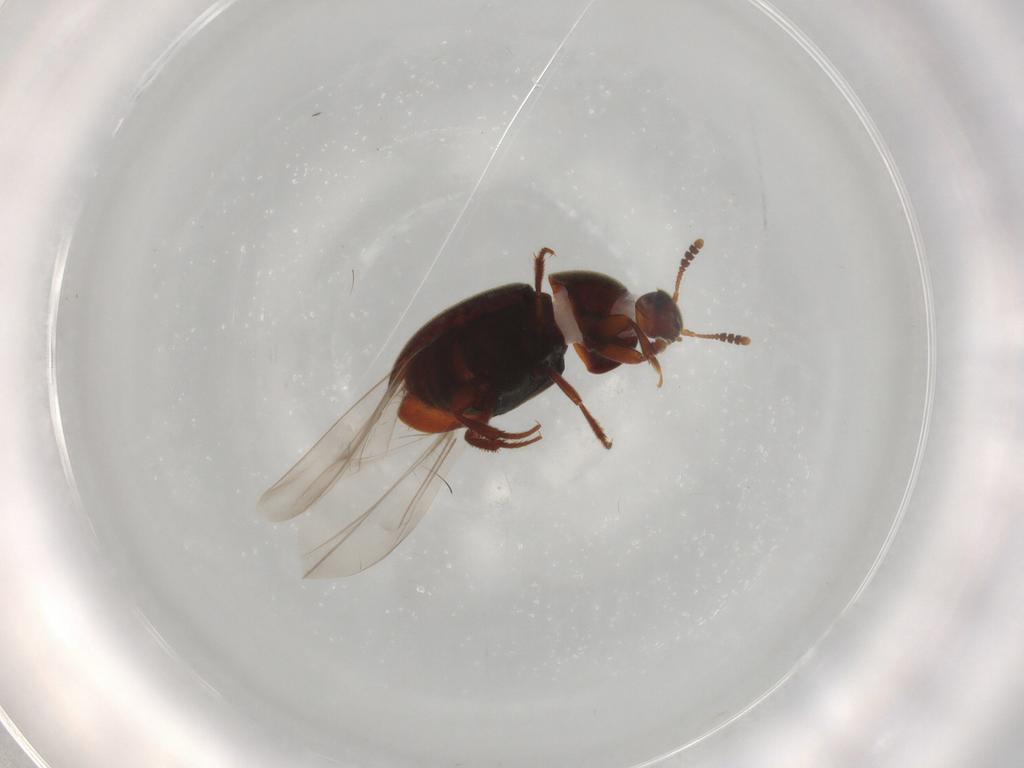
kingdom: Animalia
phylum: Arthropoda
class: Insecta
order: Coleoptera
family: Leiodidae
